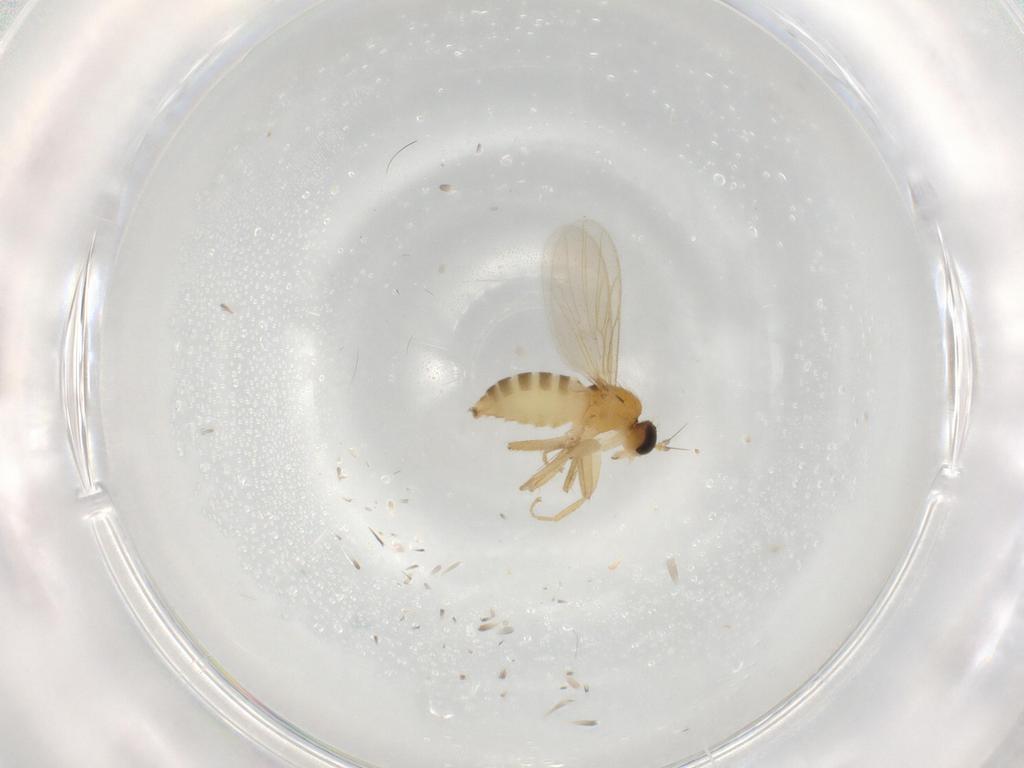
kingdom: Animalia
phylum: Arthropoda
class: Insecta
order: Diptera
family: Hybotidae
